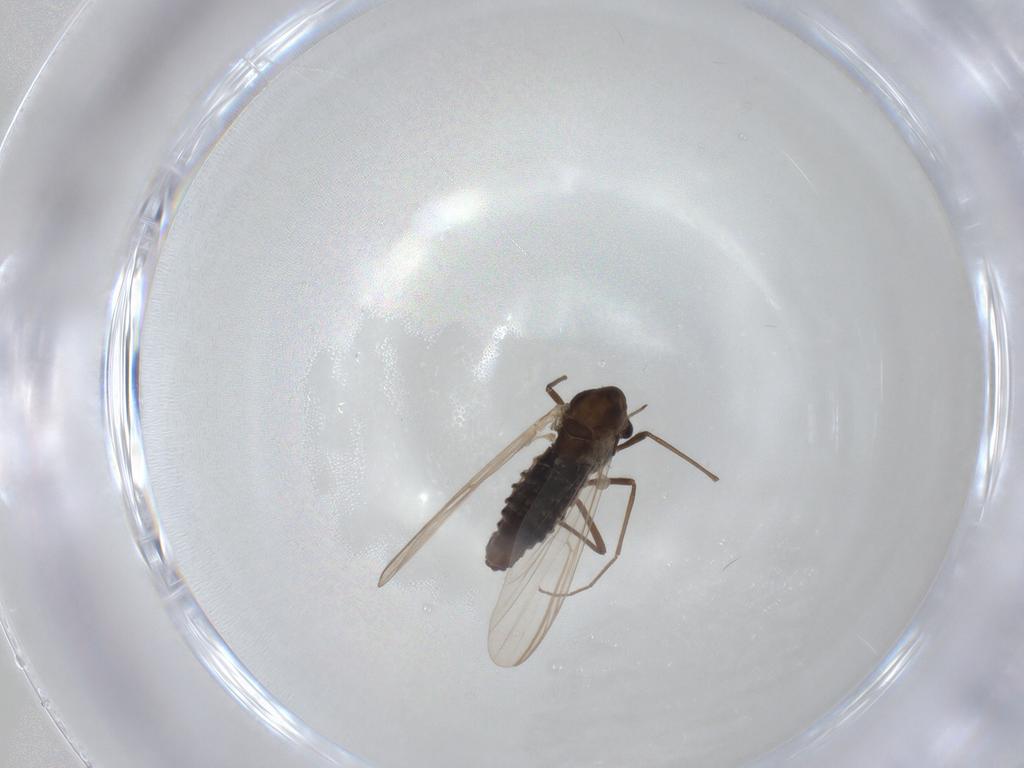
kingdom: Animalia
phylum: Arthropoda
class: Insecta
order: Diptera
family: Chironomidae
